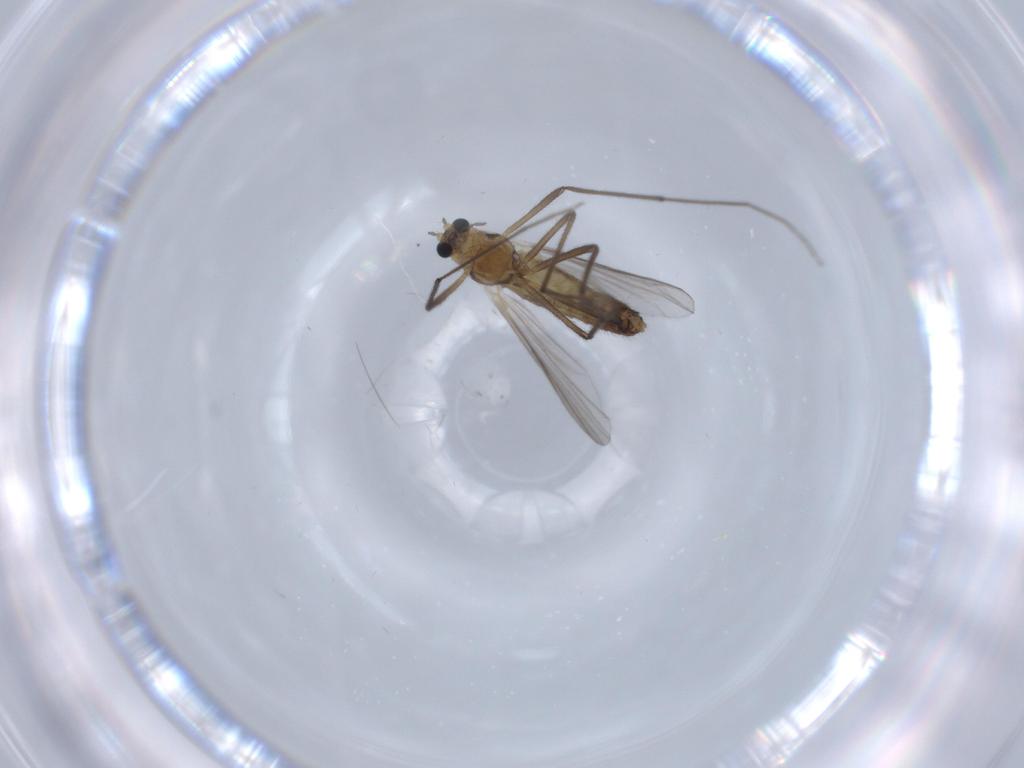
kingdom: Animalia
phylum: Arthropoda
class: Insecta
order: Diptera
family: Chironomidae
